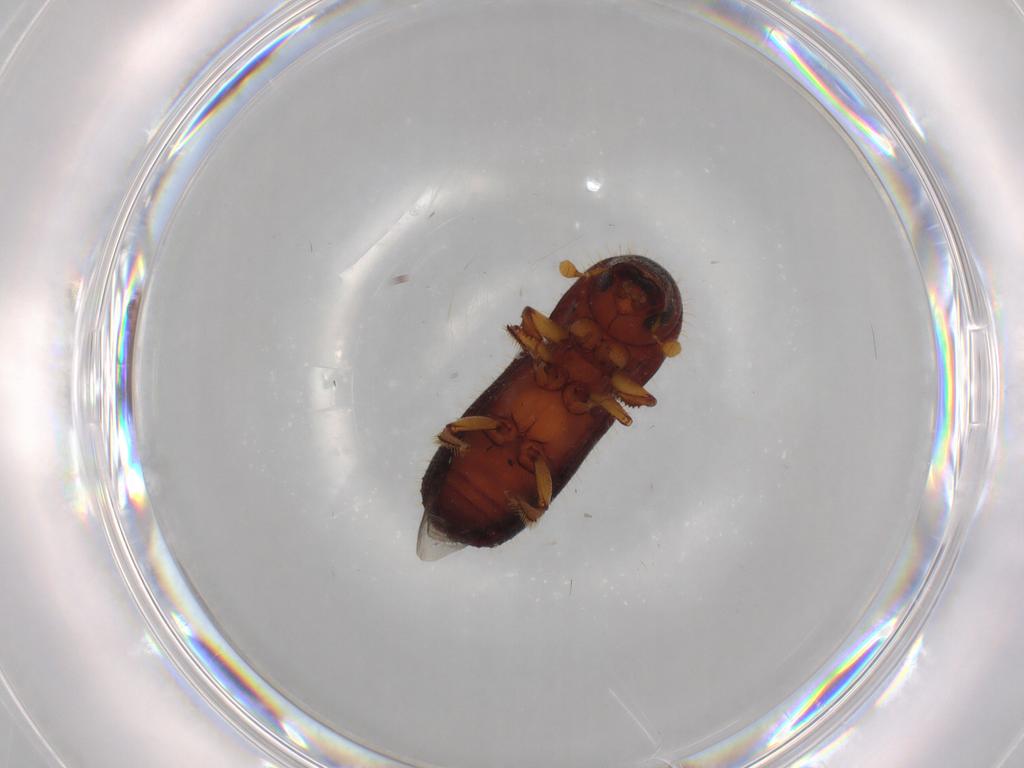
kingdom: Animalia
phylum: Arthropoda
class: Insecta
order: Coleoptera
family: Curculionidae
